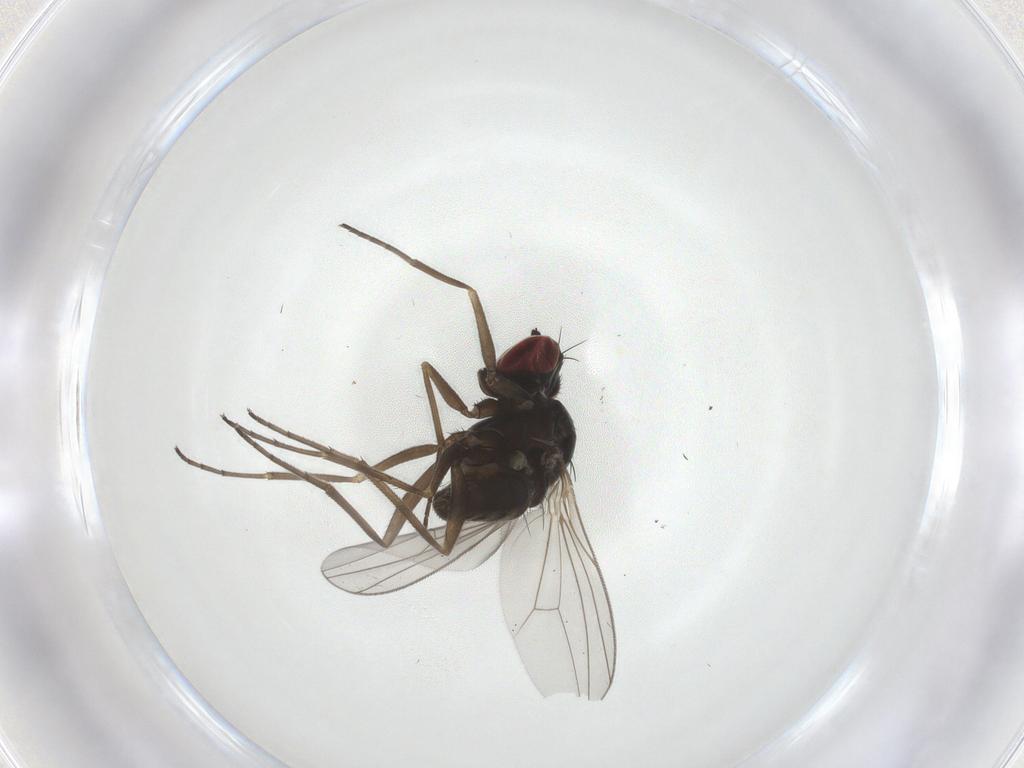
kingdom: Animalia
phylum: Arthropoda
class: Insecta
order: Diptera
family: Dolichopodidae
